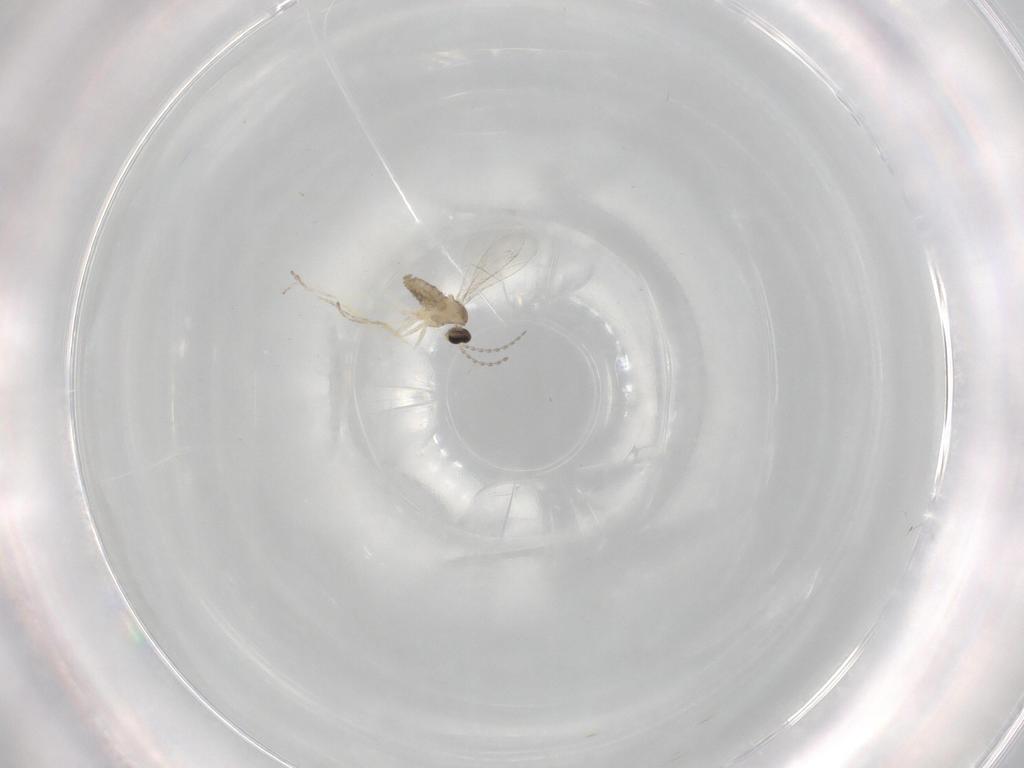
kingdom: Animalia
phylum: Arthropoda
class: Insecta
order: Diptera
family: Cecidomyiidae
